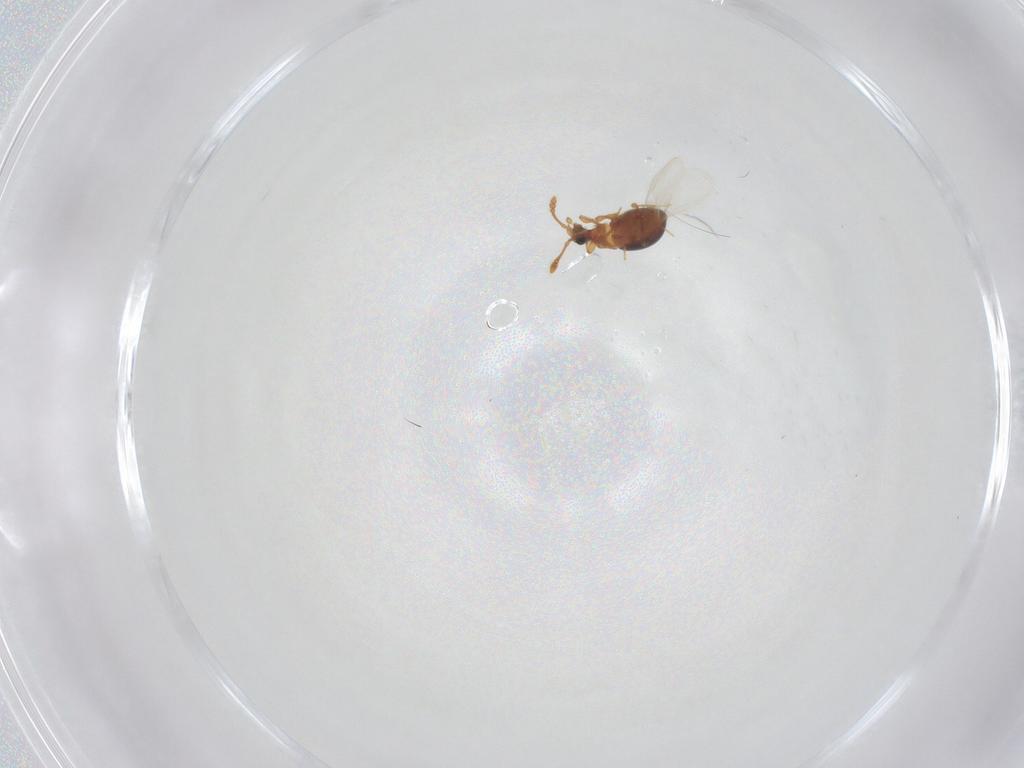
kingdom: Animalia
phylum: Arthropoda
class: Insecta
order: Coleoptera
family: Staphylinidae
